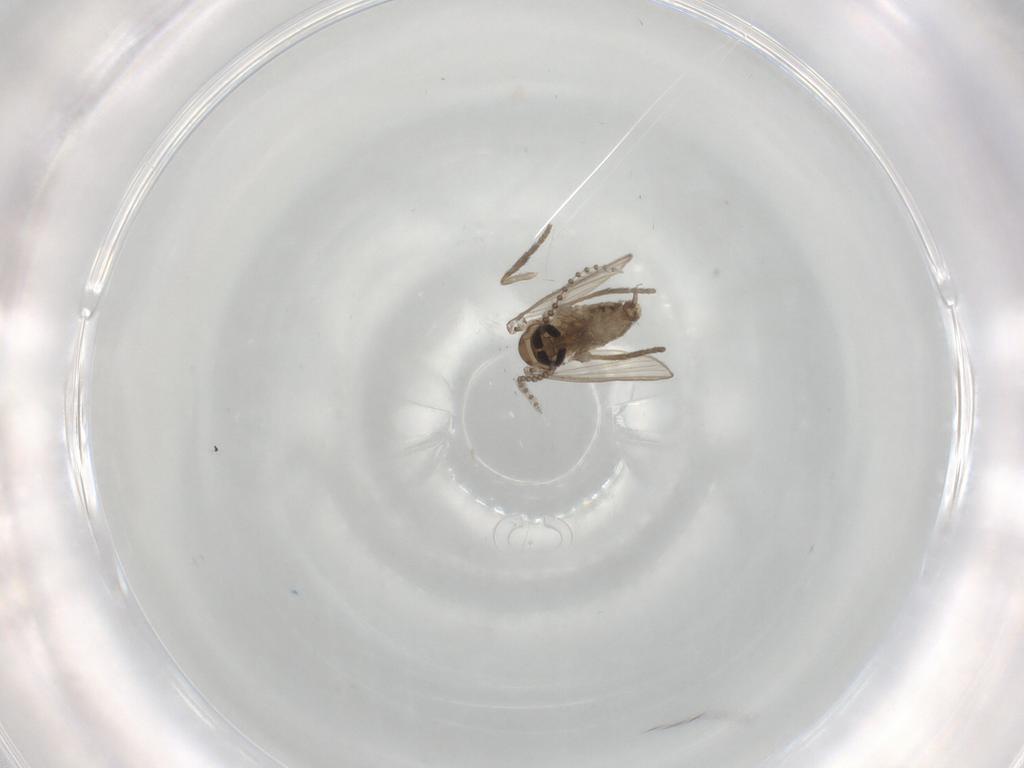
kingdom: Animalia
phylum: Arthropoda
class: Insecta
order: Diptera
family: Psychodidae
